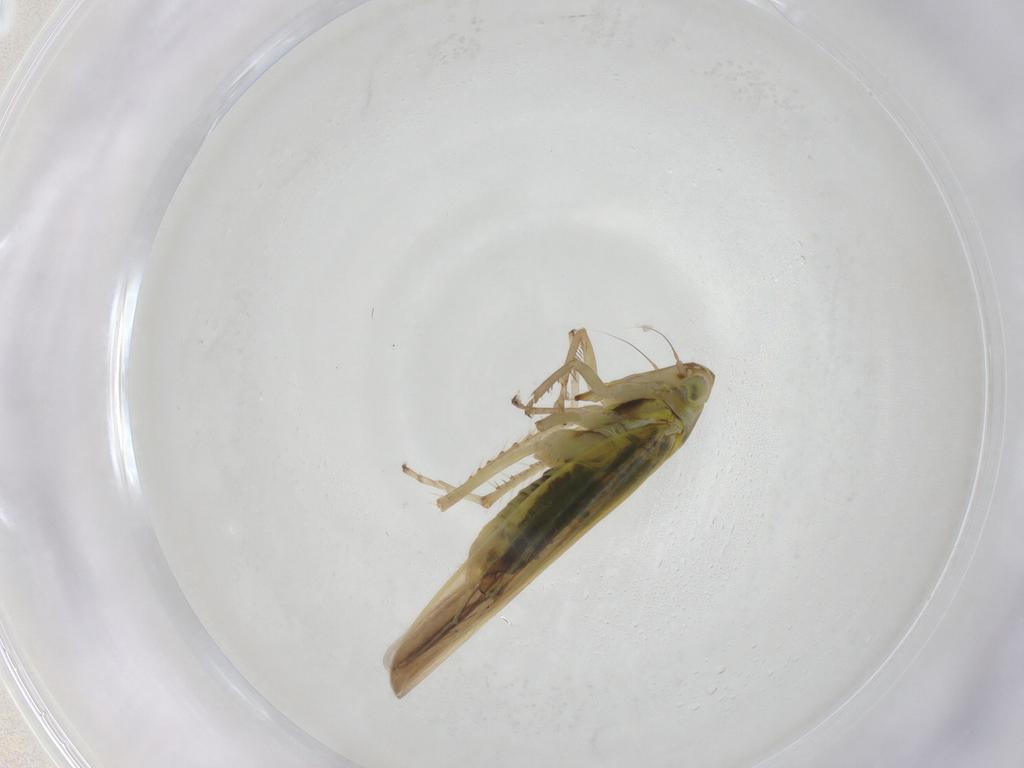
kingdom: Animalia
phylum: Arthropoda
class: Insecta
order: Hemiptera
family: Cicadellidae
